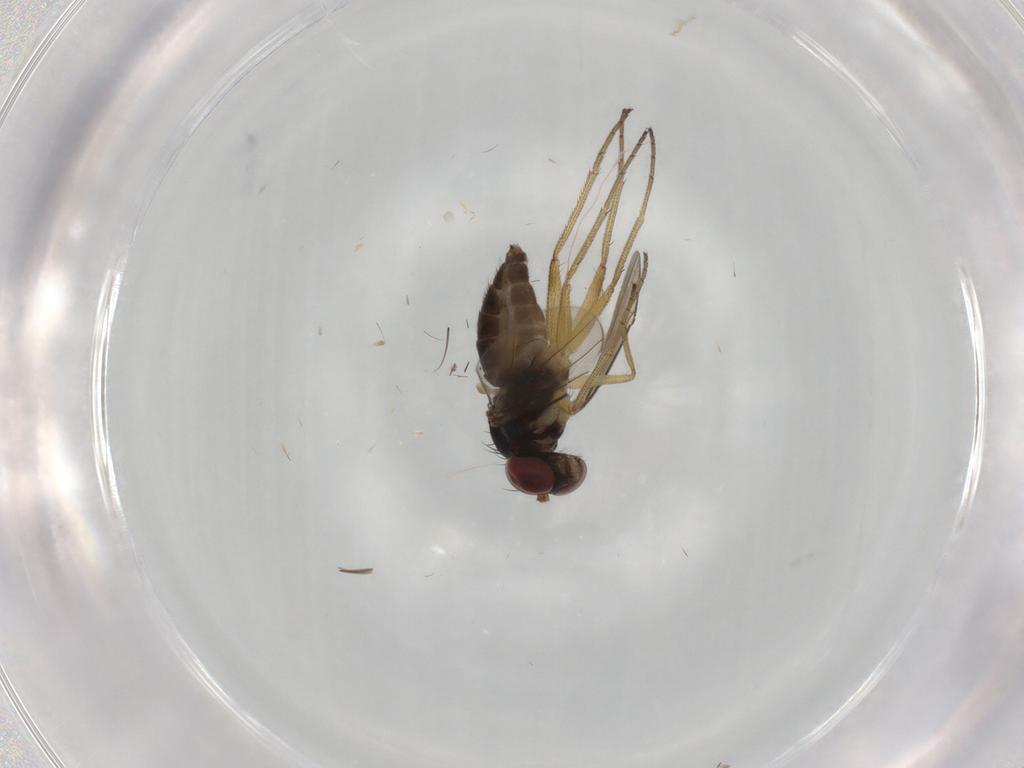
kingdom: Animalia
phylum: Arthropoda
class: Insecta
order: Diptera
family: Dolichopodidae
